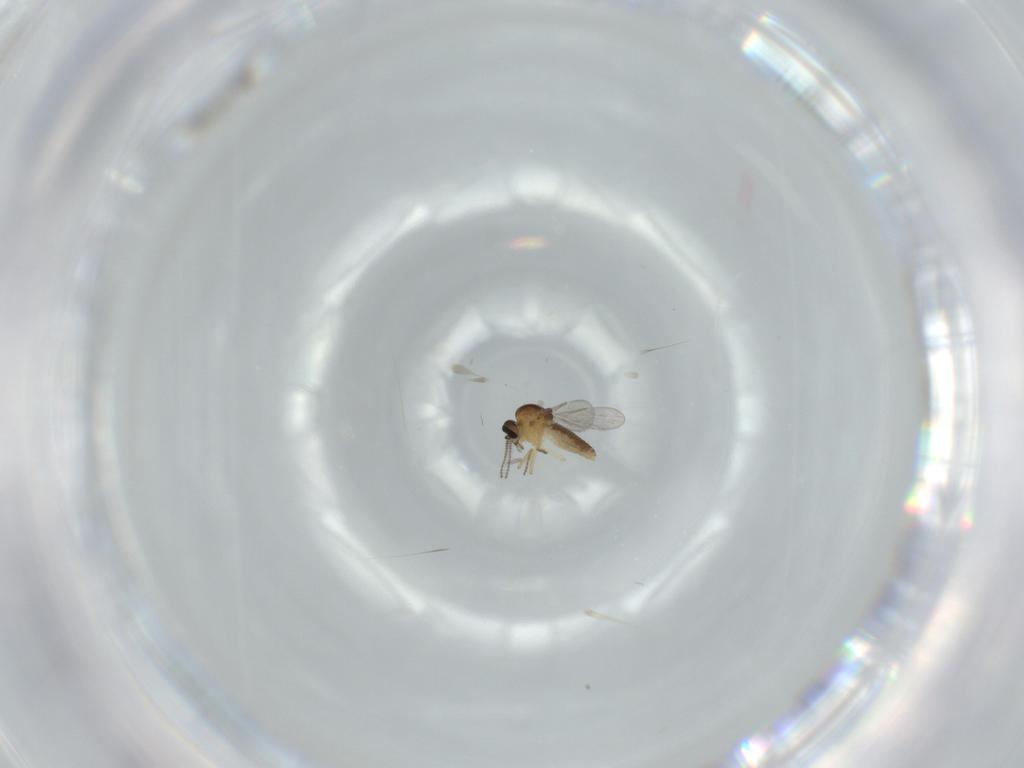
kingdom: Animalia
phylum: Arthropoda
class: Insecta
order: Diptera
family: Ceratopogonidae
